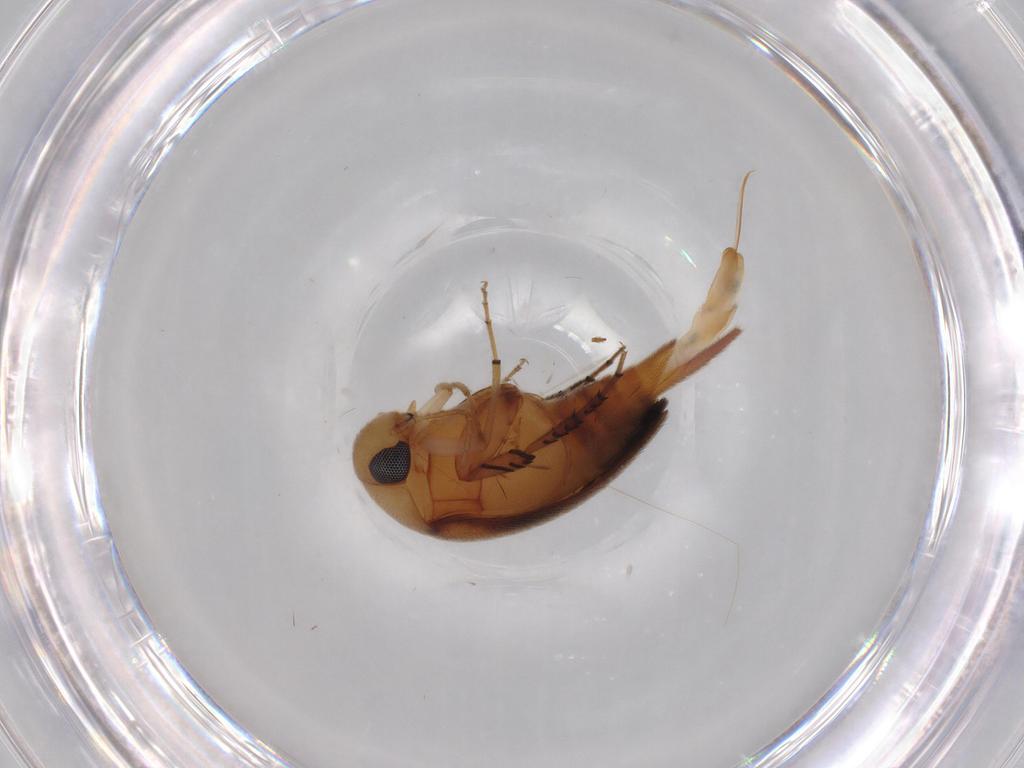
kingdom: Animalia
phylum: Arthropoda
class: Insecta
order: Coleoptera
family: Mordellidae
